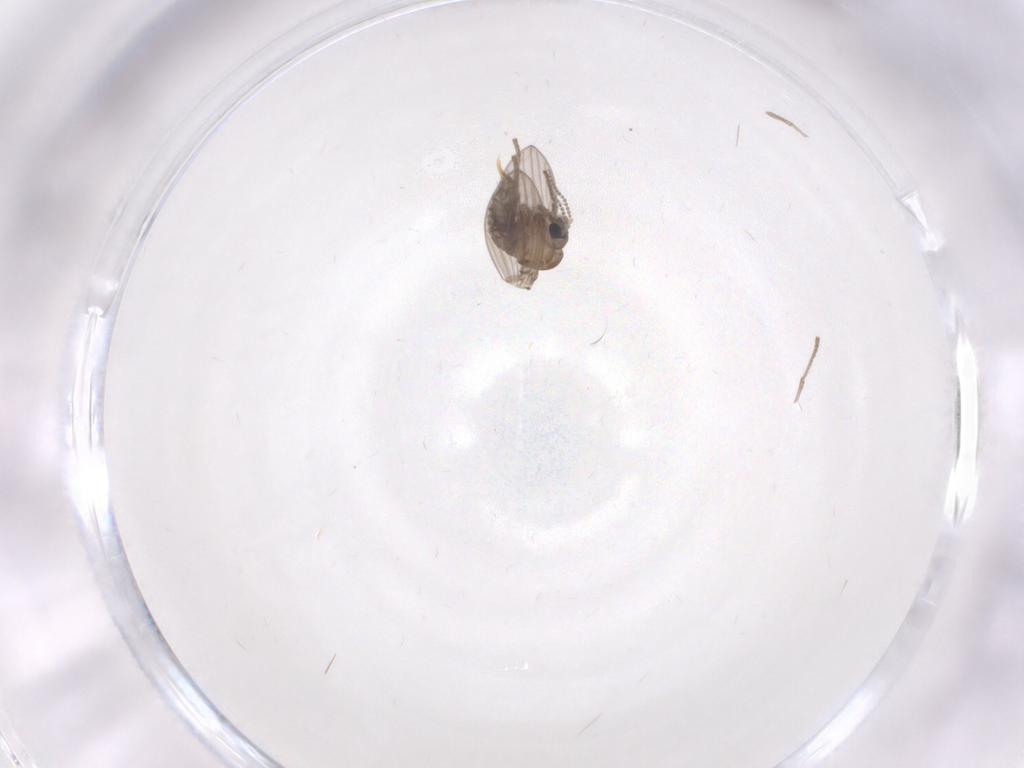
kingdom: Animalia
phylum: Arthropoda
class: Insecta
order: Diptera
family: Psychodidae
